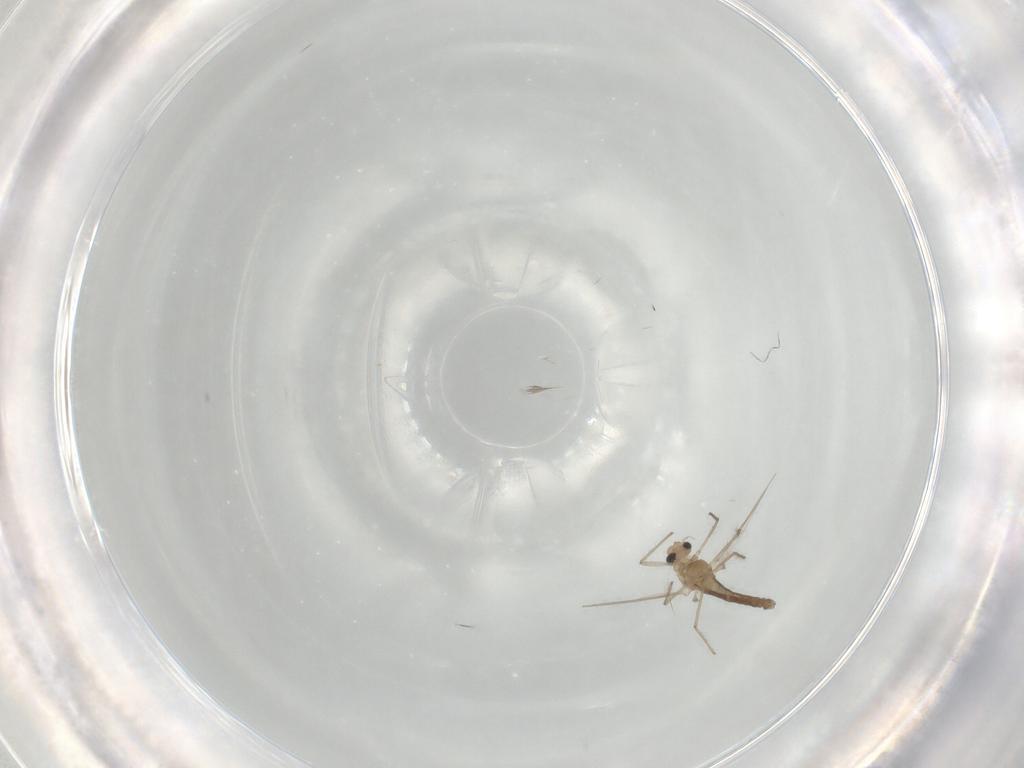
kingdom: Animalia
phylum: Arthropoda
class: Insecta
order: Diptera
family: Chironomidae
